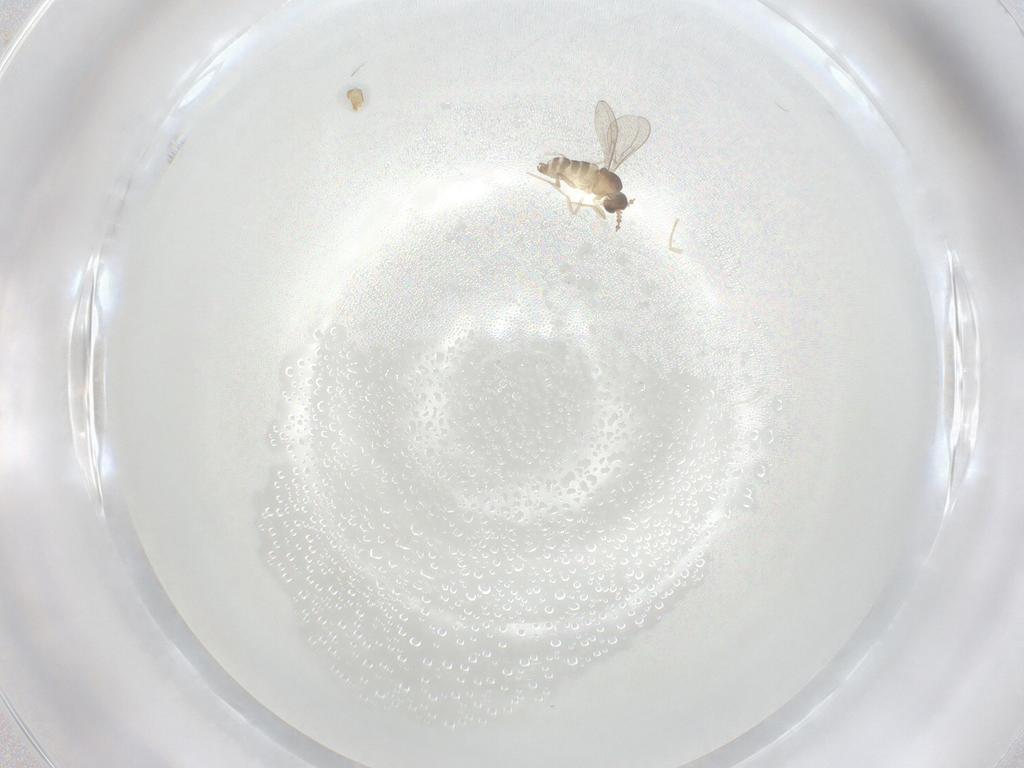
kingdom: Animalia
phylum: Arthropoda
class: Insecta
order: Diptera
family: Cecidomyiidae
